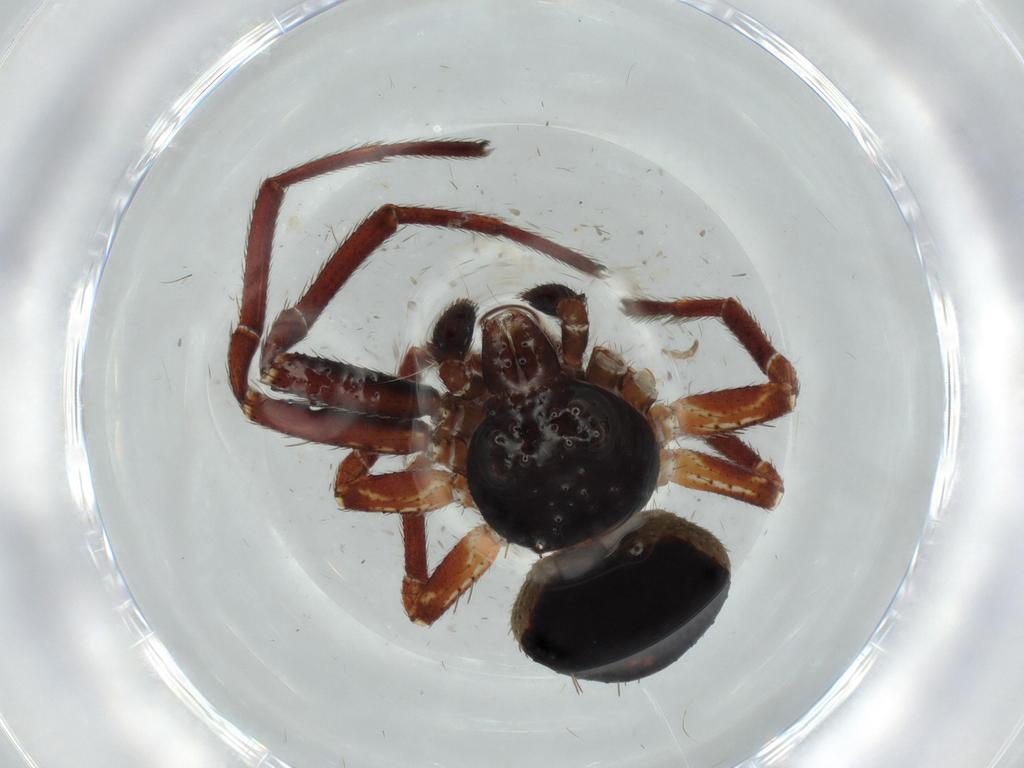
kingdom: Animalia
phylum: Arthropoda
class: Arachnida
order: Araneae
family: Thomisidae
